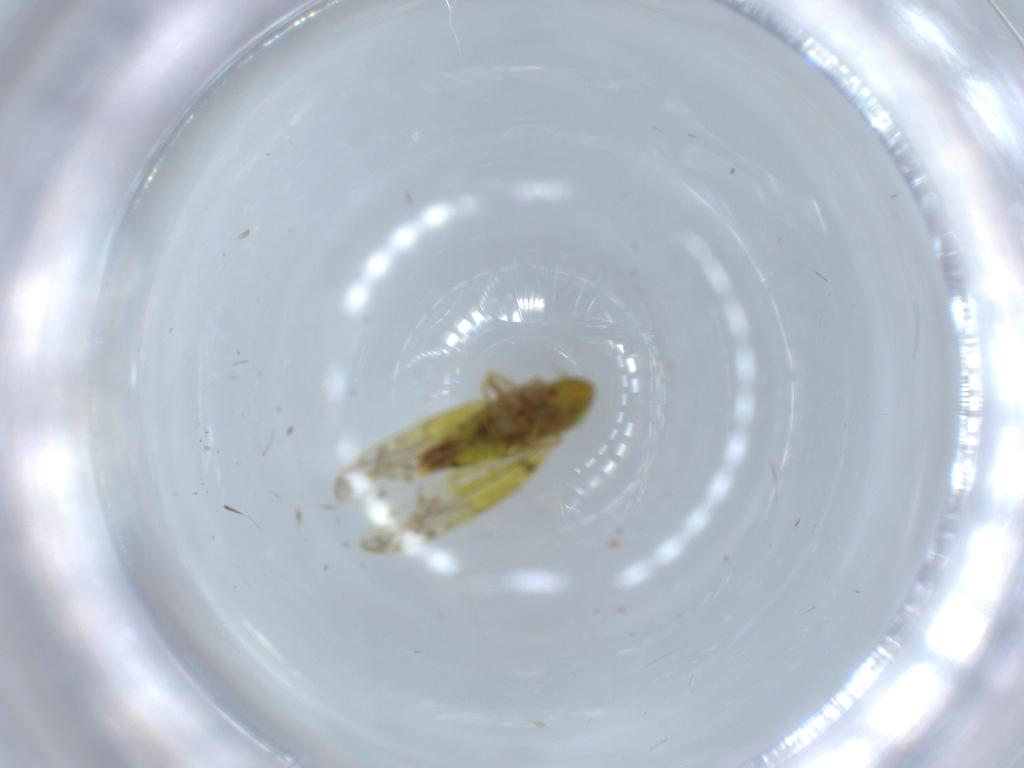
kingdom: Animalia
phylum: Arthropoda
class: Insecta
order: Hemiptera
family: Cicadellidae
